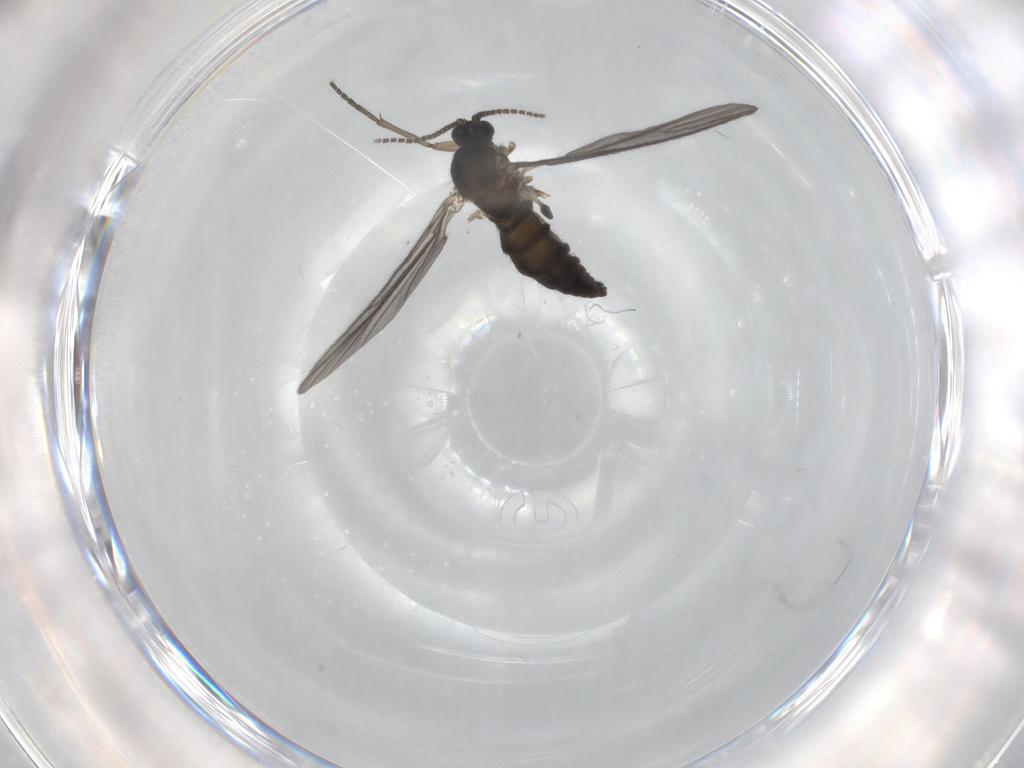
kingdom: Animalia
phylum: Arthropoda
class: Insecta
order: Diptera
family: Sciaridae
